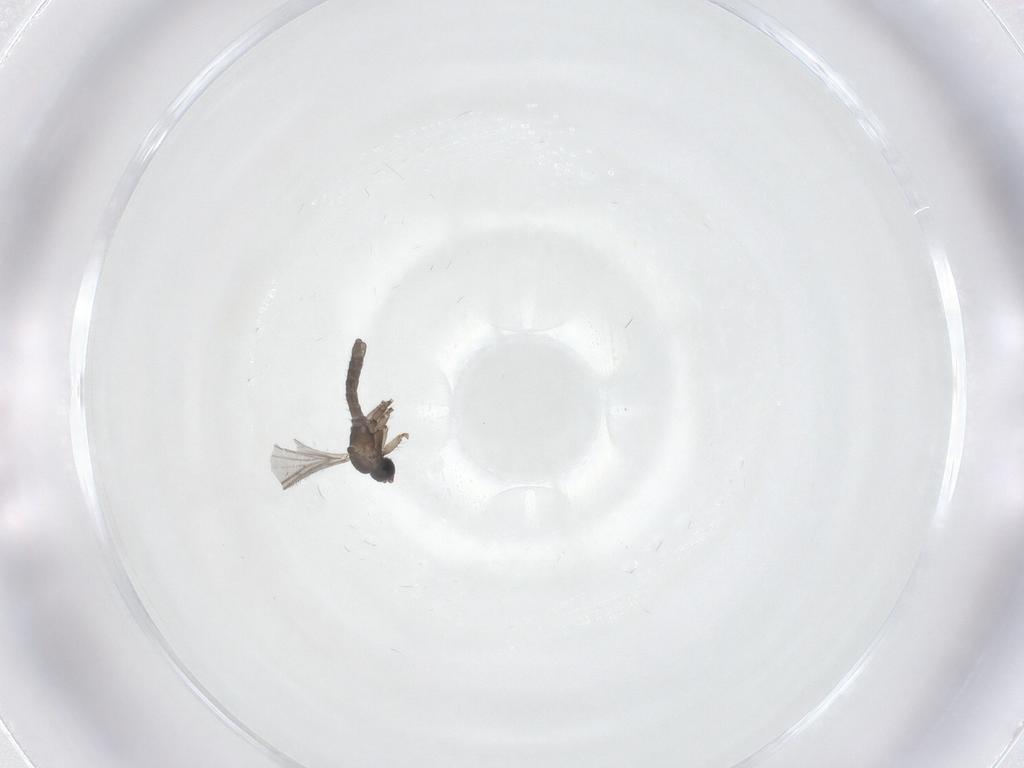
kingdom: Animalia
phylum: Arthropoda
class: Insecta
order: Diptera
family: Sciaridae
